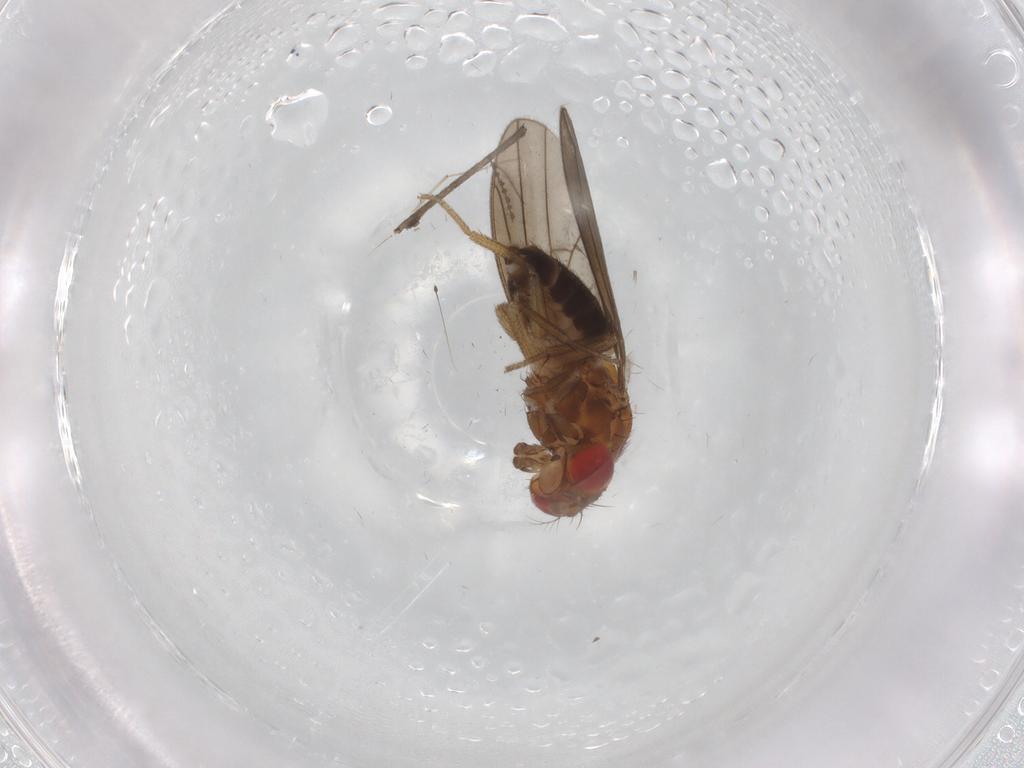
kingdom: Animalia
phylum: Arthropoda
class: Insecta
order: Diptera
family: Drosophilidae
